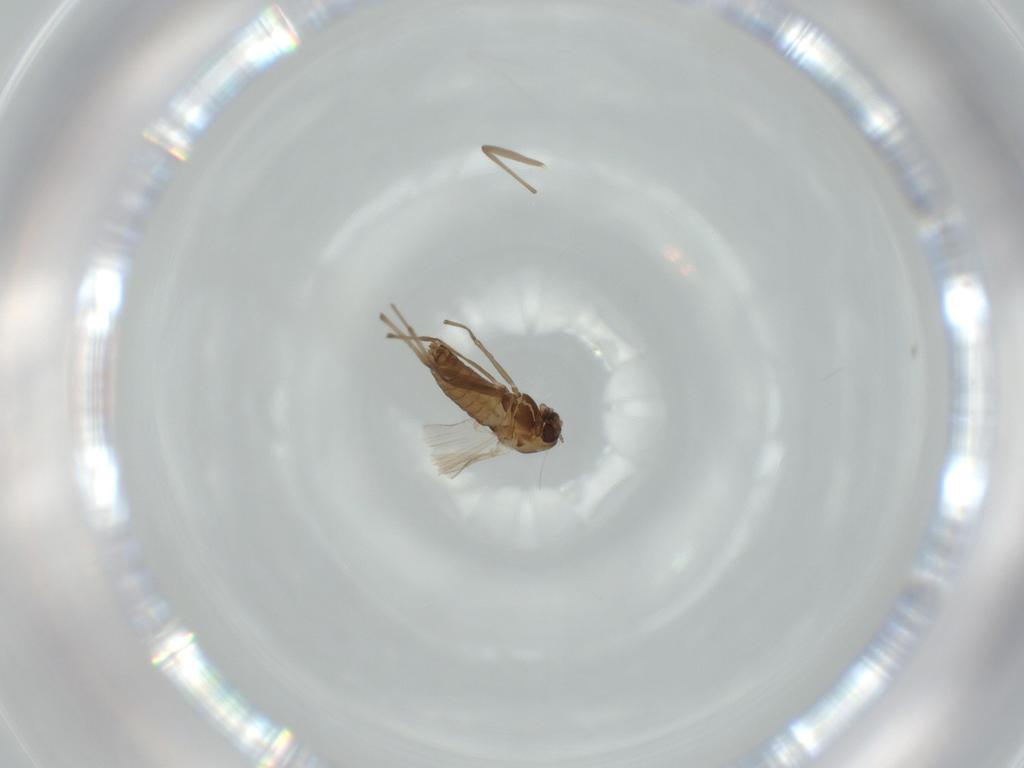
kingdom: Animalia
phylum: Arthropoda
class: Insecta
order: Diptera
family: Chironomidae
